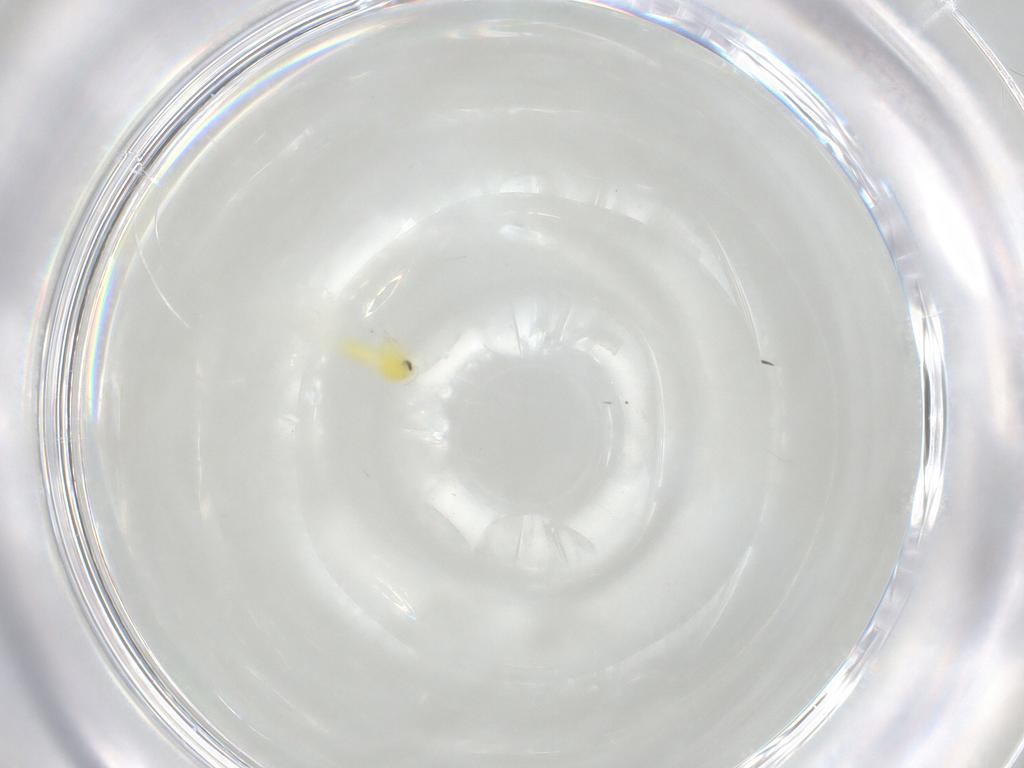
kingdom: Animalia
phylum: Arthropoda
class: Insecta
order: Hemiptera
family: Aleyrodidae
